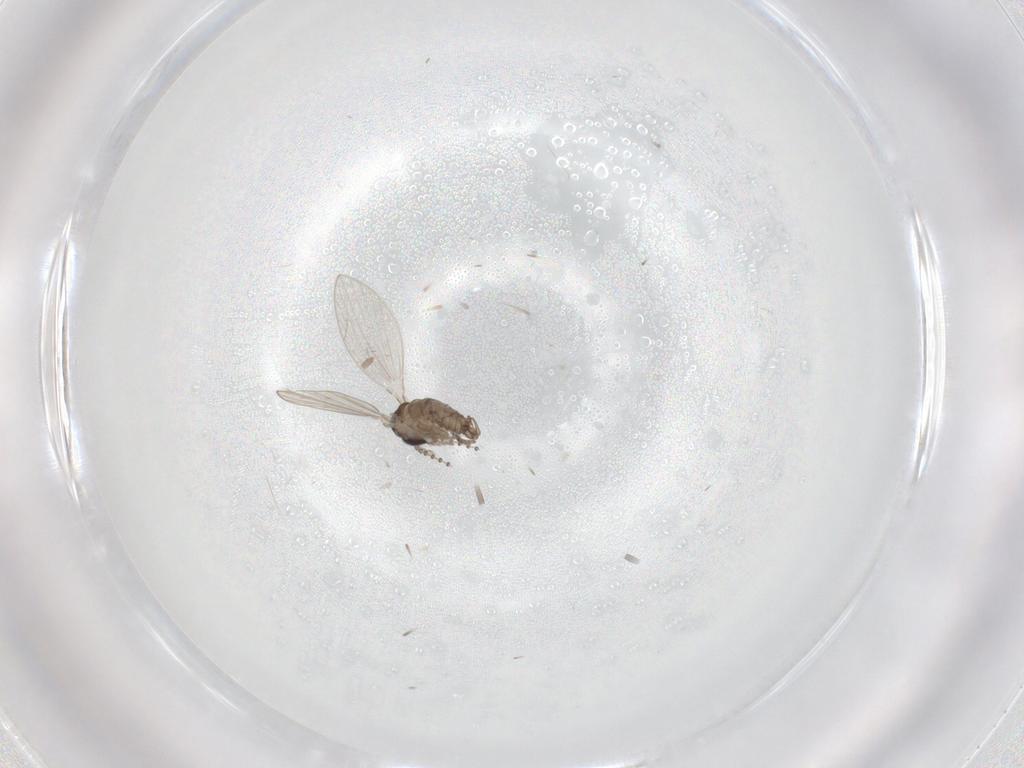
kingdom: Animalia
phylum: Arthropoda
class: Insecta
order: Diptera
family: Psychodidae
